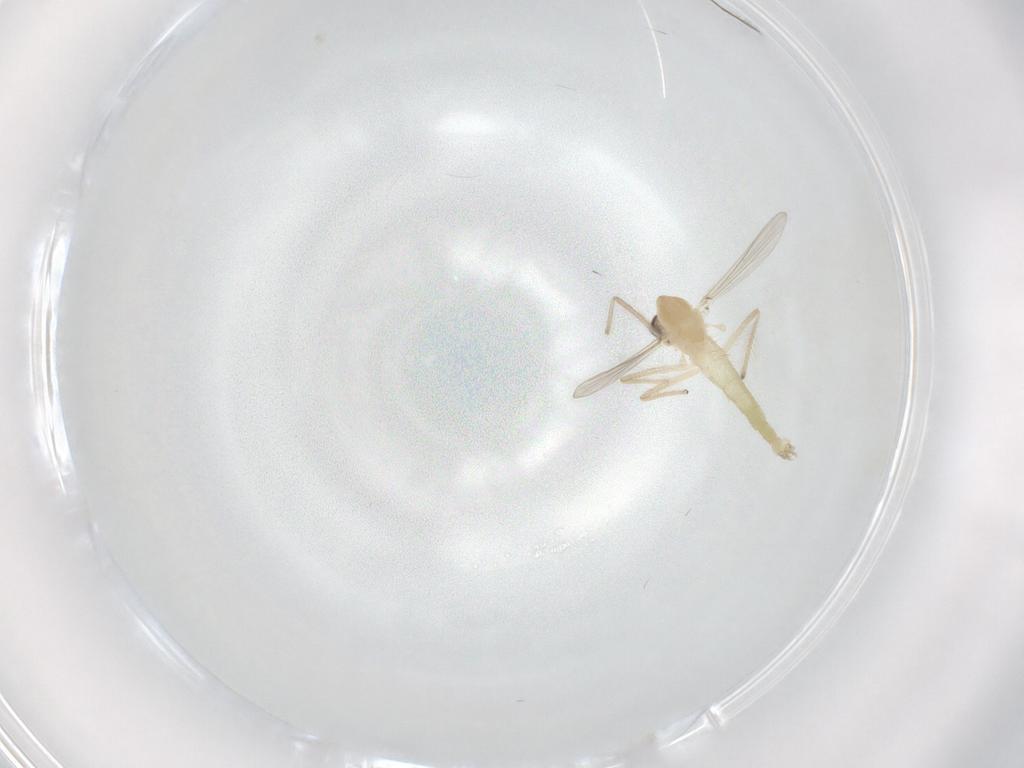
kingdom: Animalia
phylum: Arthropoda
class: Insecta
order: Diptera
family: Chironomidae
